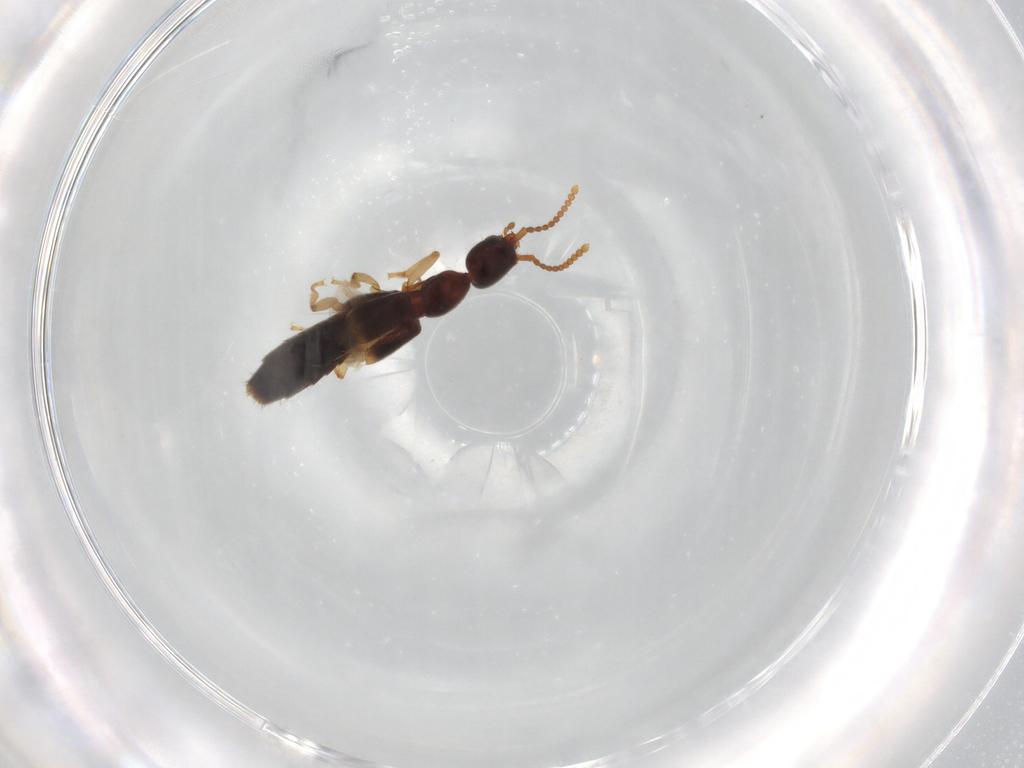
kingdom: Animalia
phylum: Arthropoda
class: Insecta
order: Coleoptera
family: Staphylinidae
